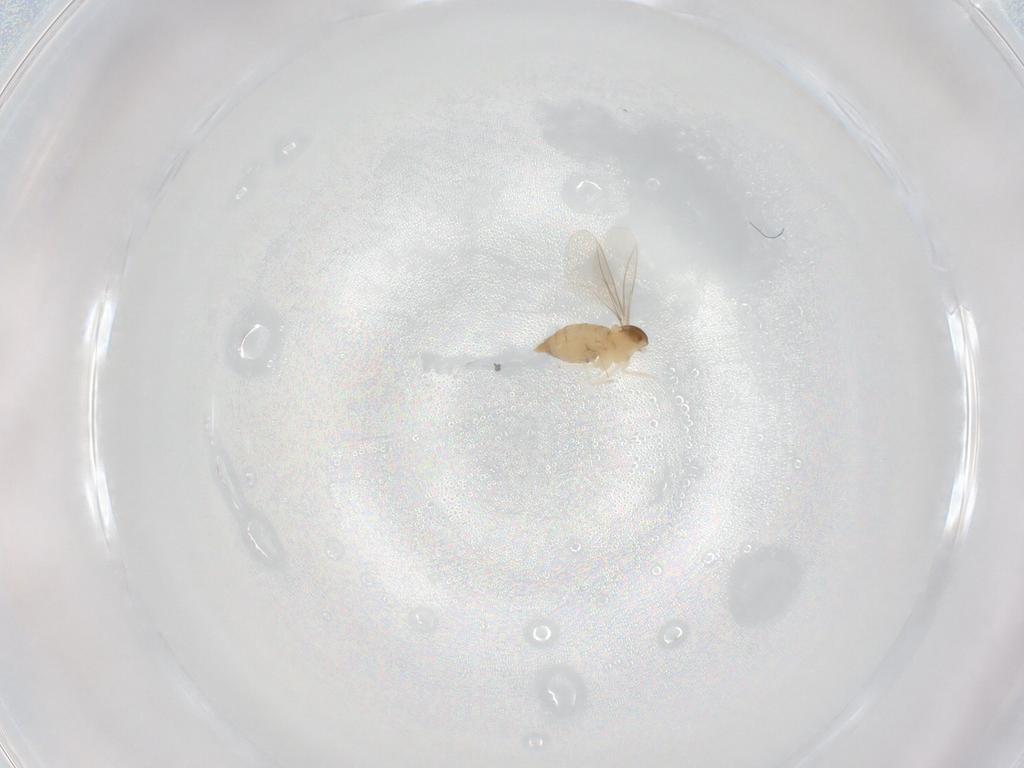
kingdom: Animalia
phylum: Arthropoda
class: Insecta
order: Diptera
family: Cecidomyiidae
